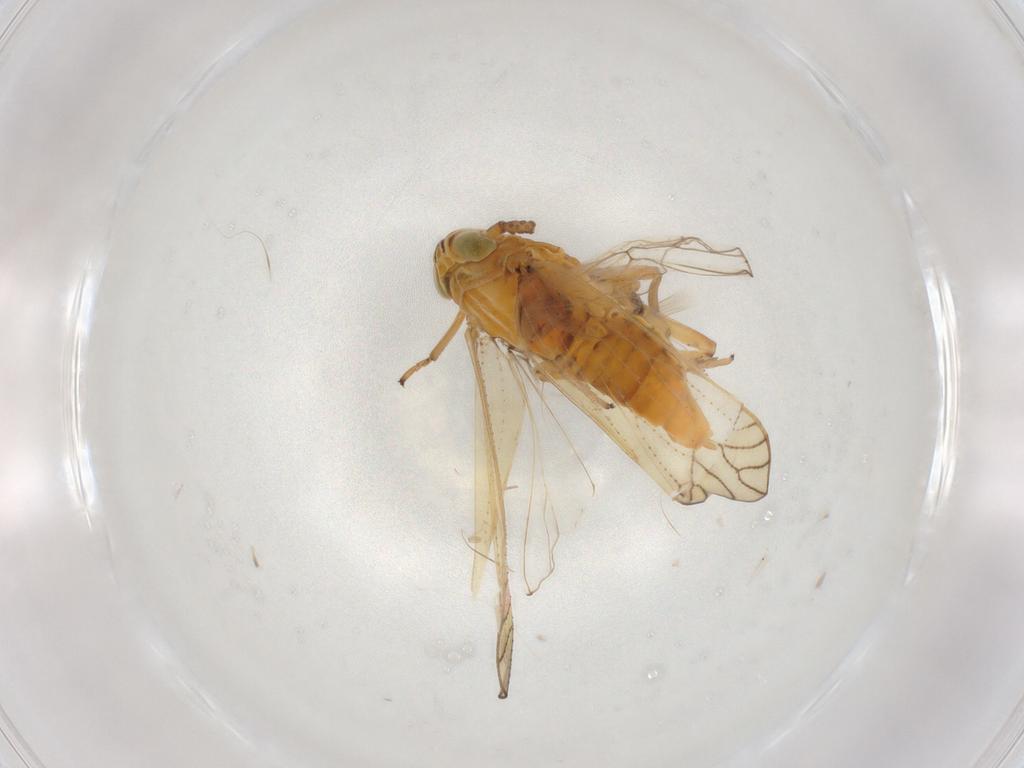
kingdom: Animalia
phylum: Arthropoda
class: Insecta
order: Hemiptera
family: Delphacidae
